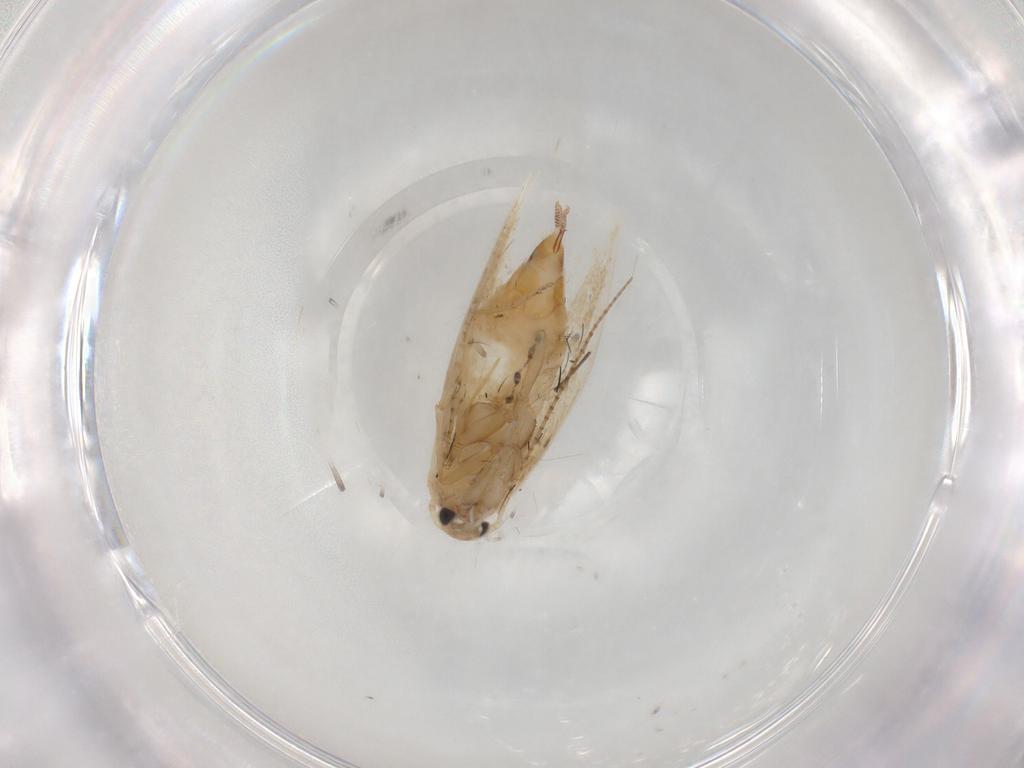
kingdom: Animalia
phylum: Arthropoda
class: Insecta
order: Lepidoptera
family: Bucculatricidae
